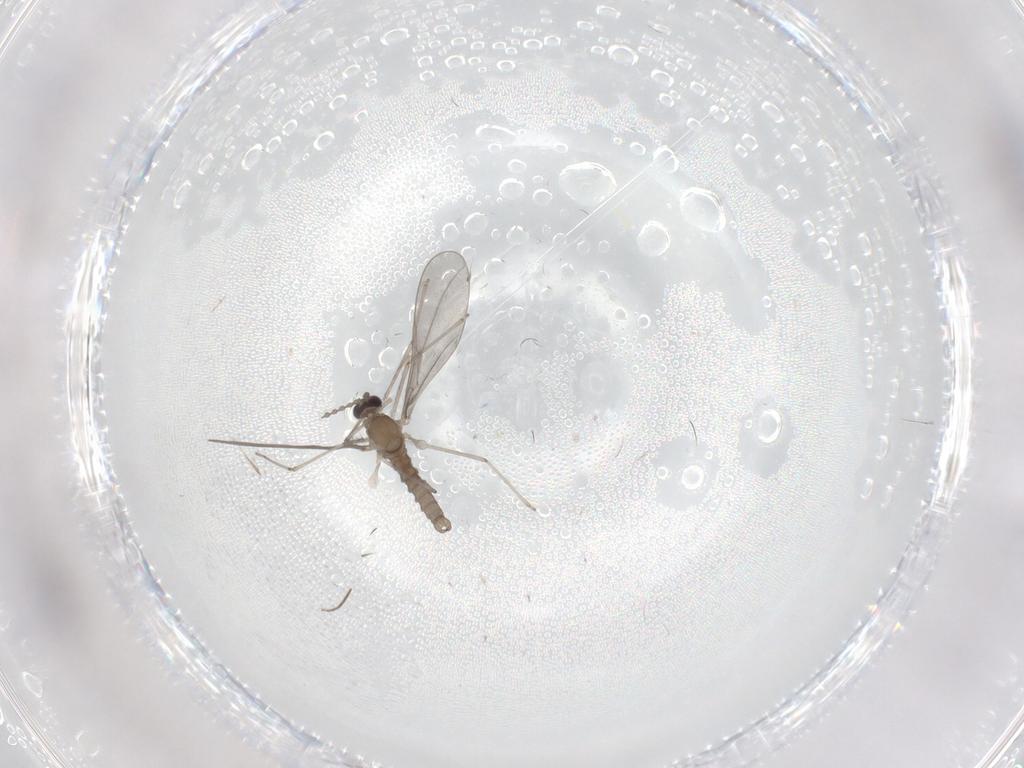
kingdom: Animalia
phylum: Arthropoda
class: Insecta
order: Diptera
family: Cecidomyiidae
